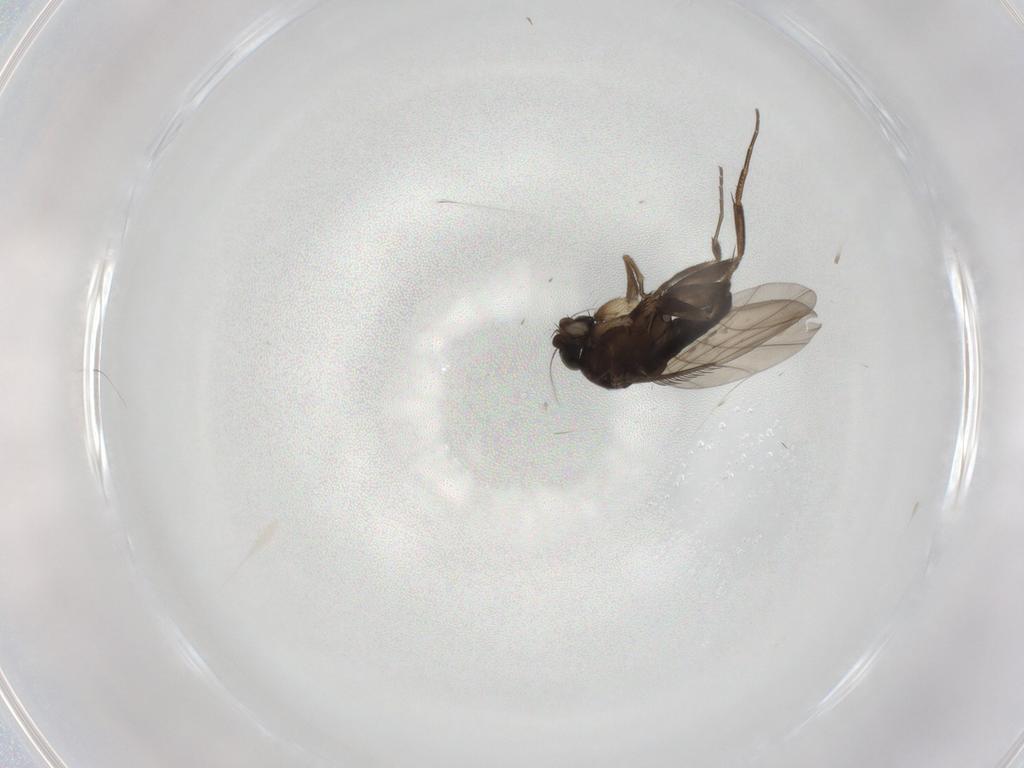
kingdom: Animalia
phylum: Arthropoda
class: Insecta
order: Diptera
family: Phoridae
